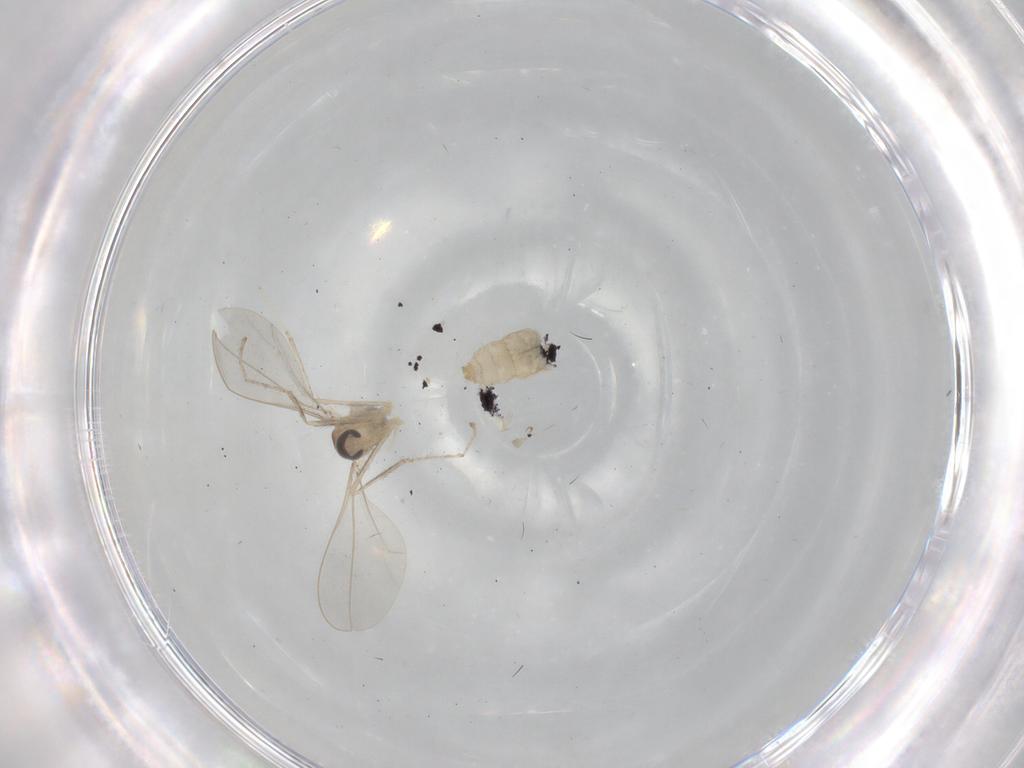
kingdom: Animalia
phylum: Arthropoda
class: Insecta
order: Diptera
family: Cecidomyiidae
